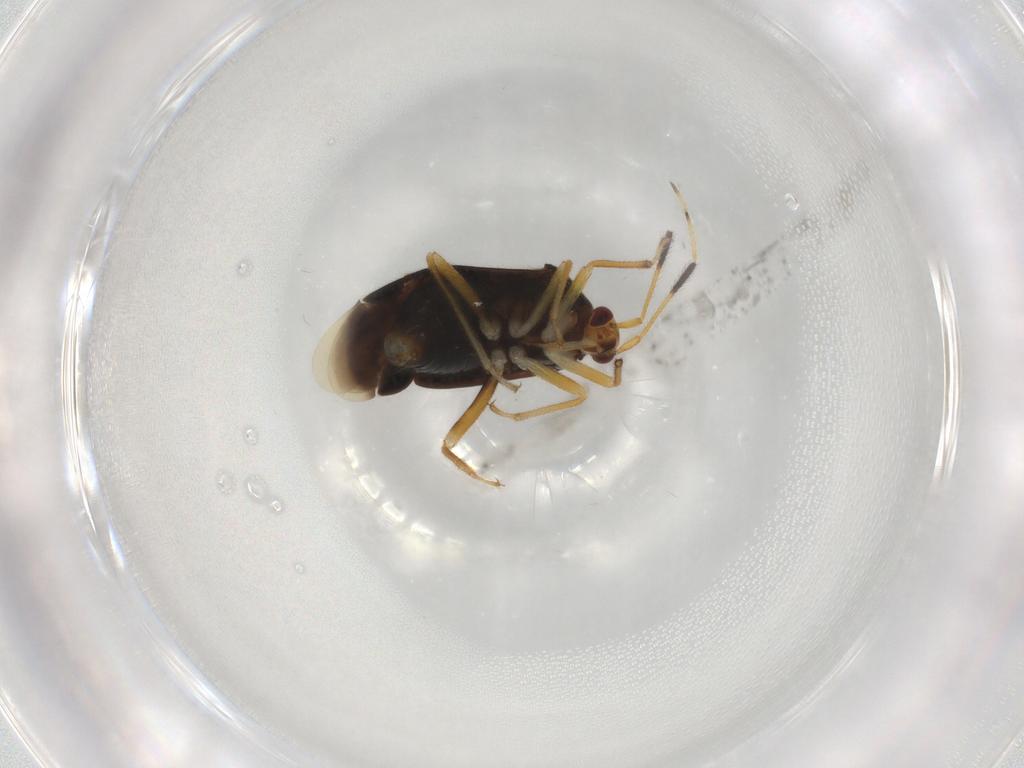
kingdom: Animalia
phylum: Arthropoda
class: Insecta
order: Hemiptera
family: Miridae
